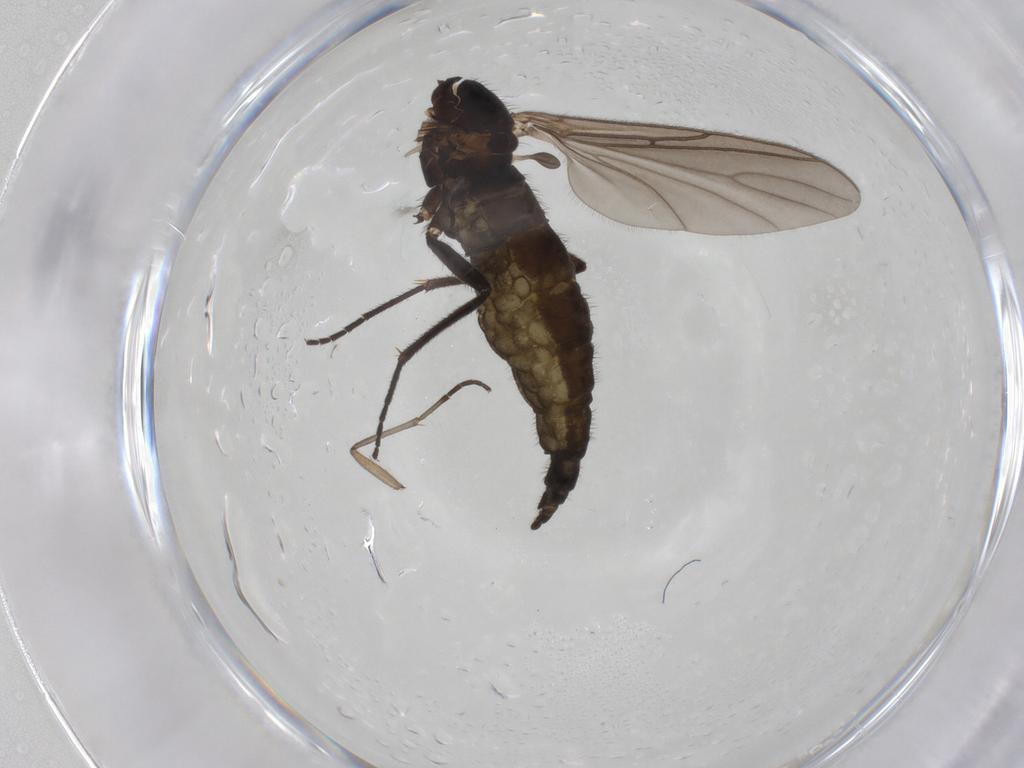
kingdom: Animalia
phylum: Arthropoda
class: Insecta
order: Diptera
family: Sciaridae
